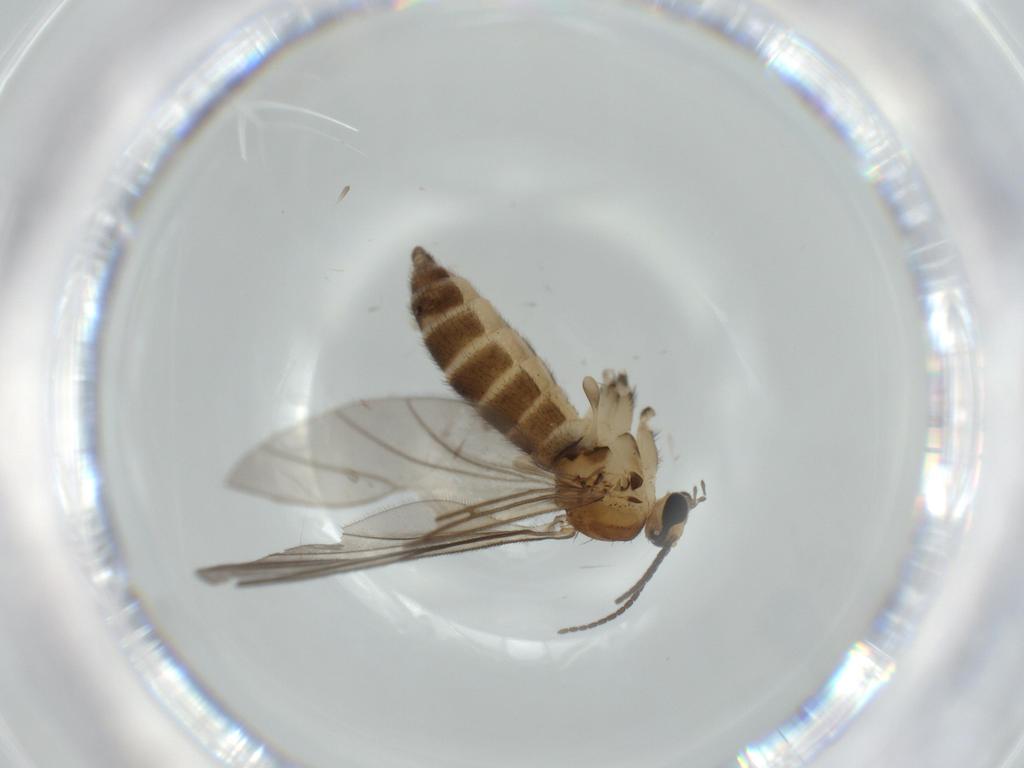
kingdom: Animalia
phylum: Arthropoda
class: Insecta
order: Diptera
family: Sciaridae
